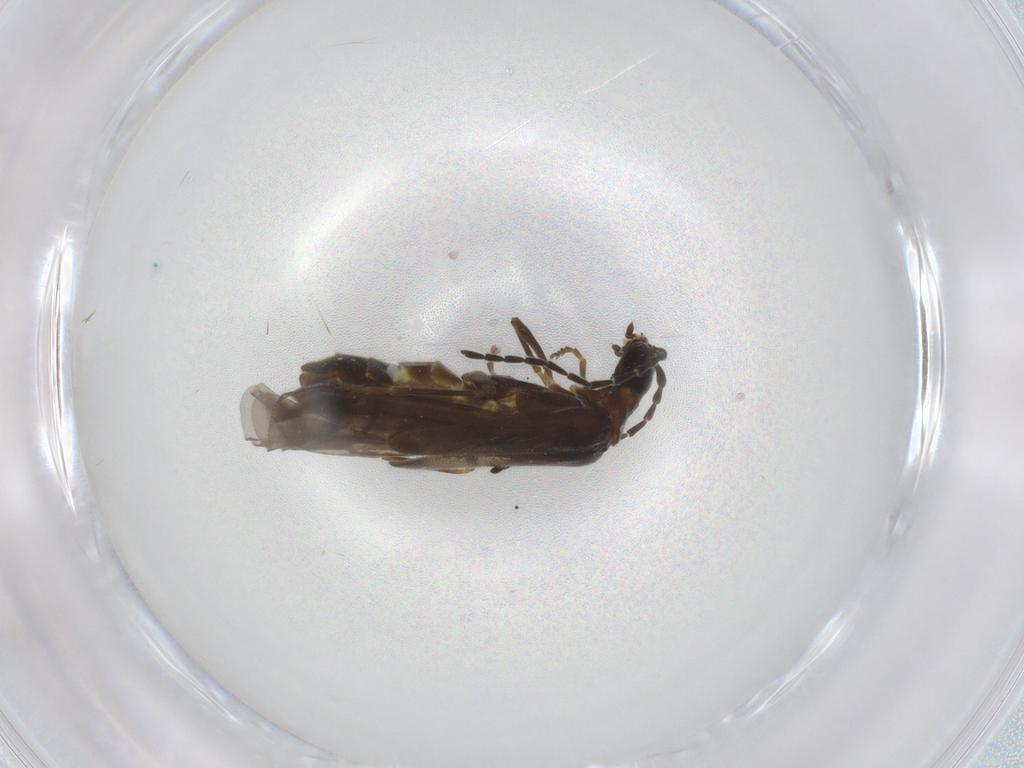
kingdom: Animalia
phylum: Arthropoda
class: Insecta
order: Coleoptera
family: Cantharidae
